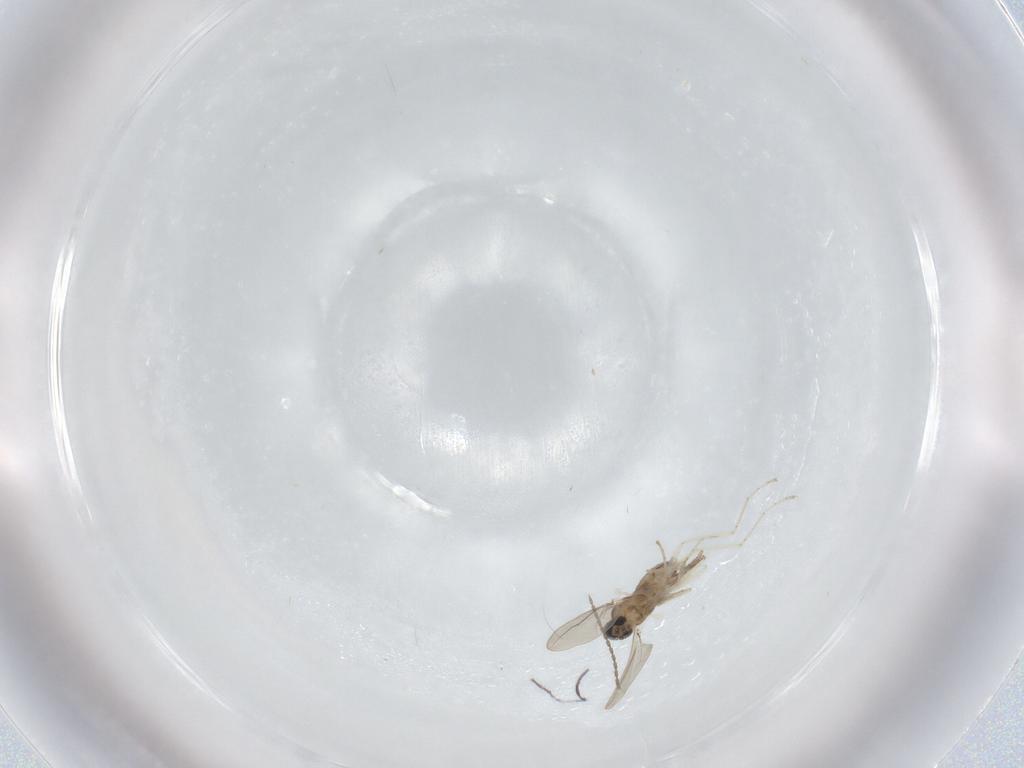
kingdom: Animalia
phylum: Arthropoda
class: Insecta
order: Diptera
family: Cecidomyiidae
